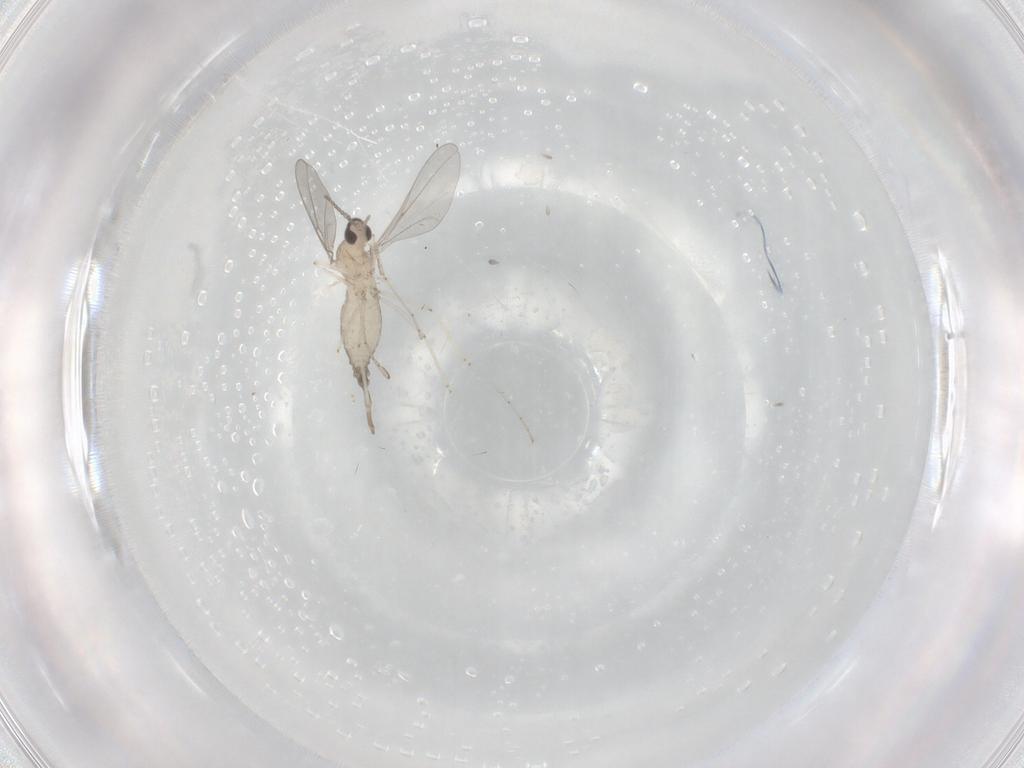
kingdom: Animalia
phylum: Arthropoda
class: Insecta
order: Diptera
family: Cecidomyiidae
